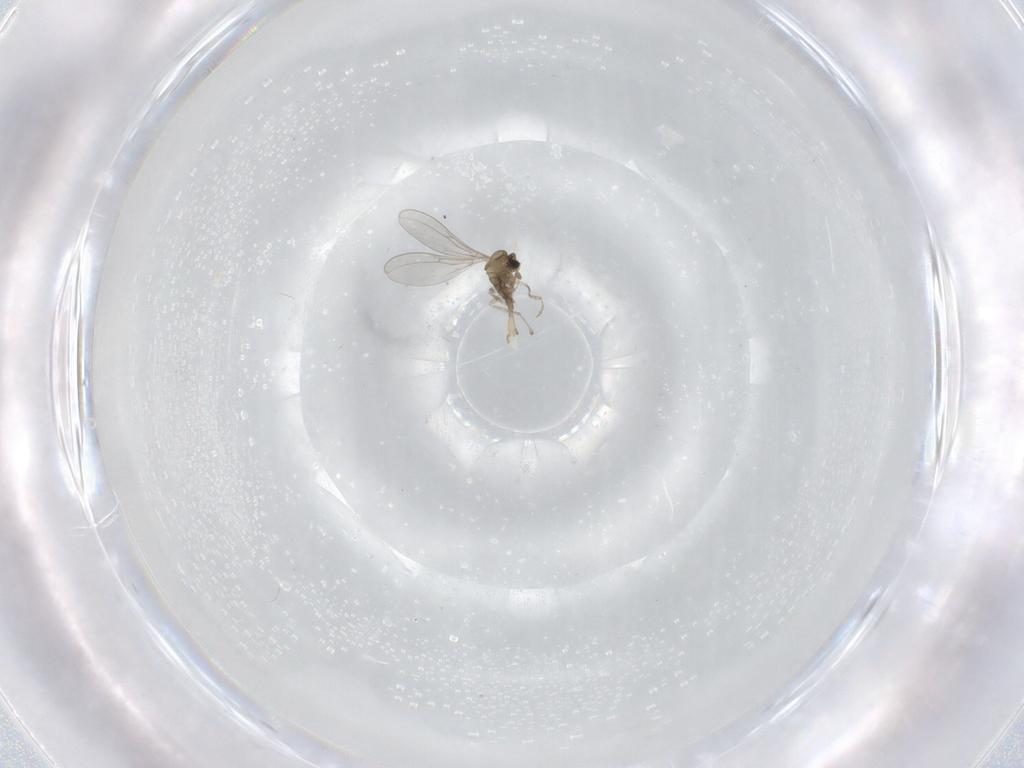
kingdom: Animalia
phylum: Arthropoda
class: Insecta
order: Diptera
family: Cecidomyiidae
